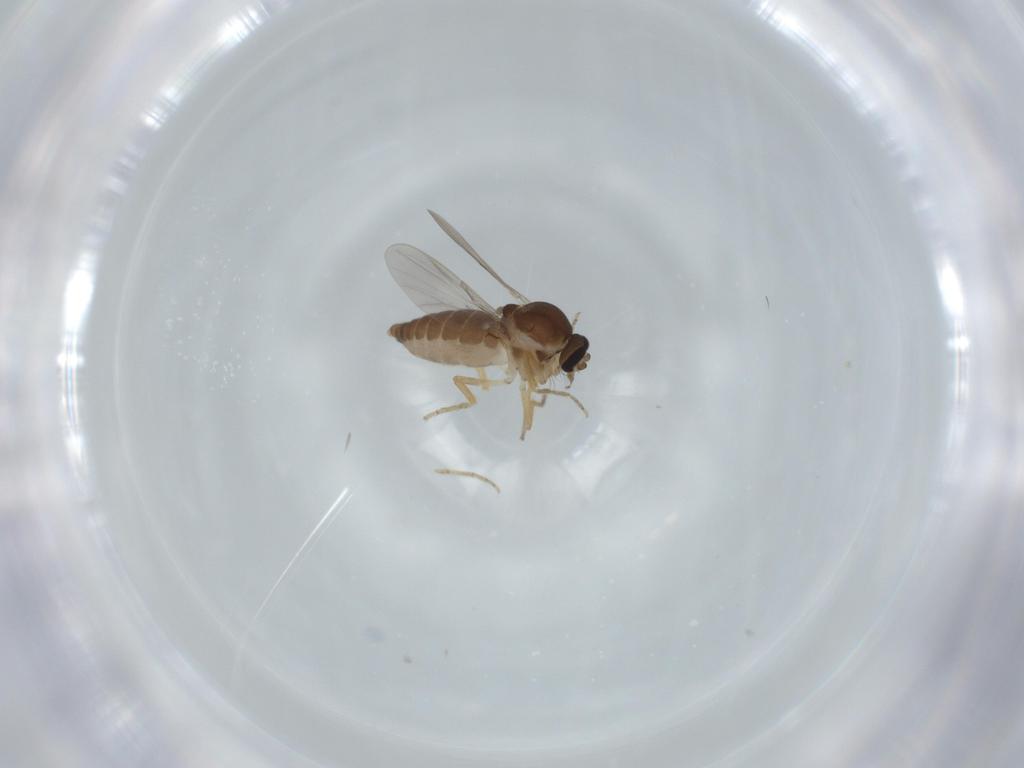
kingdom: Animalia
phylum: Arthropoda
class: Insecta
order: Diptera
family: Ceratopogonidae
